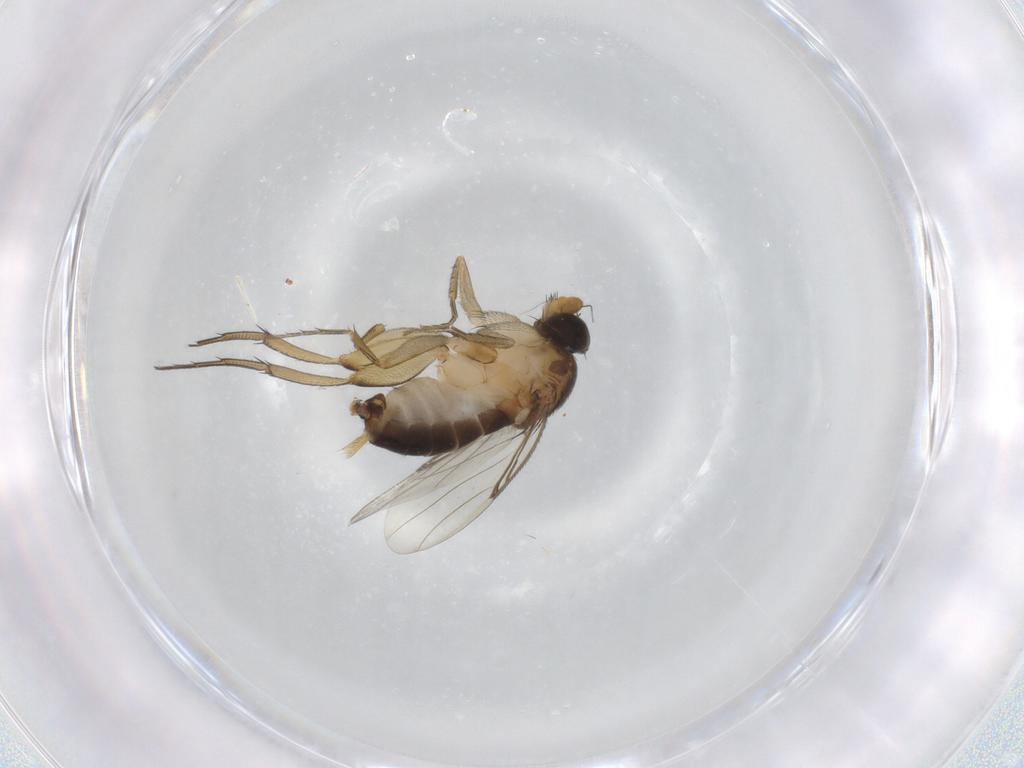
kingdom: Animalia
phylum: Arthropoda
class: Insecta
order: Diptera
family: Phoridae
